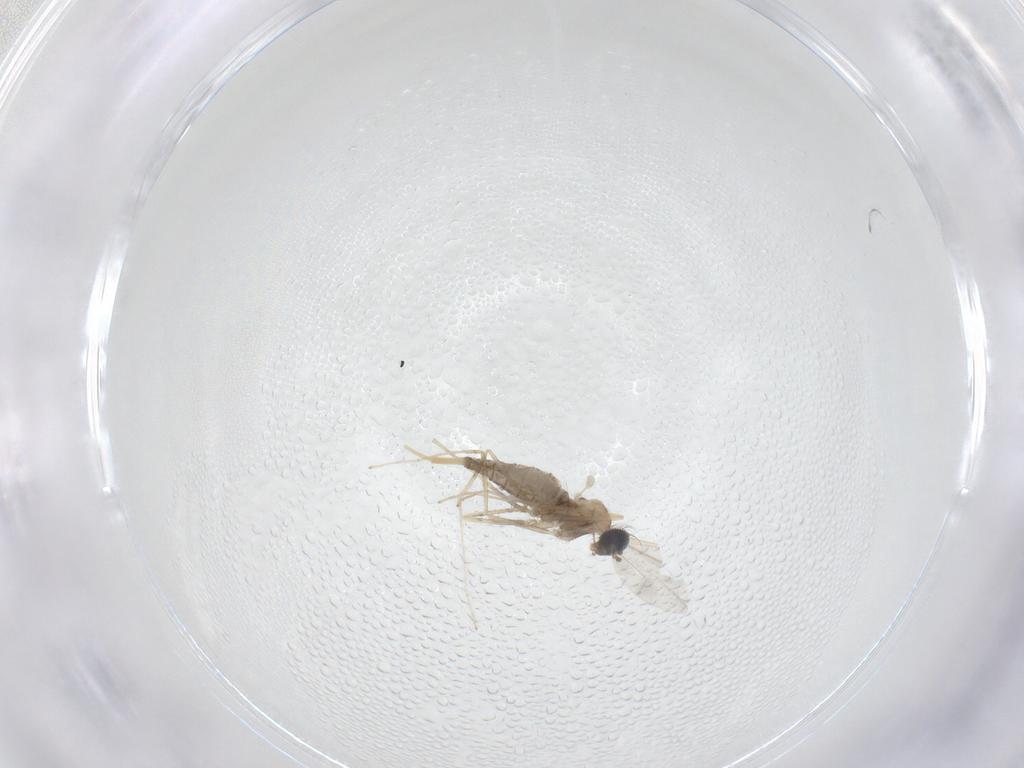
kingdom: Animalia
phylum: Arthropoda
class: Insecta
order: Diptera
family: Cecidomyiidae
